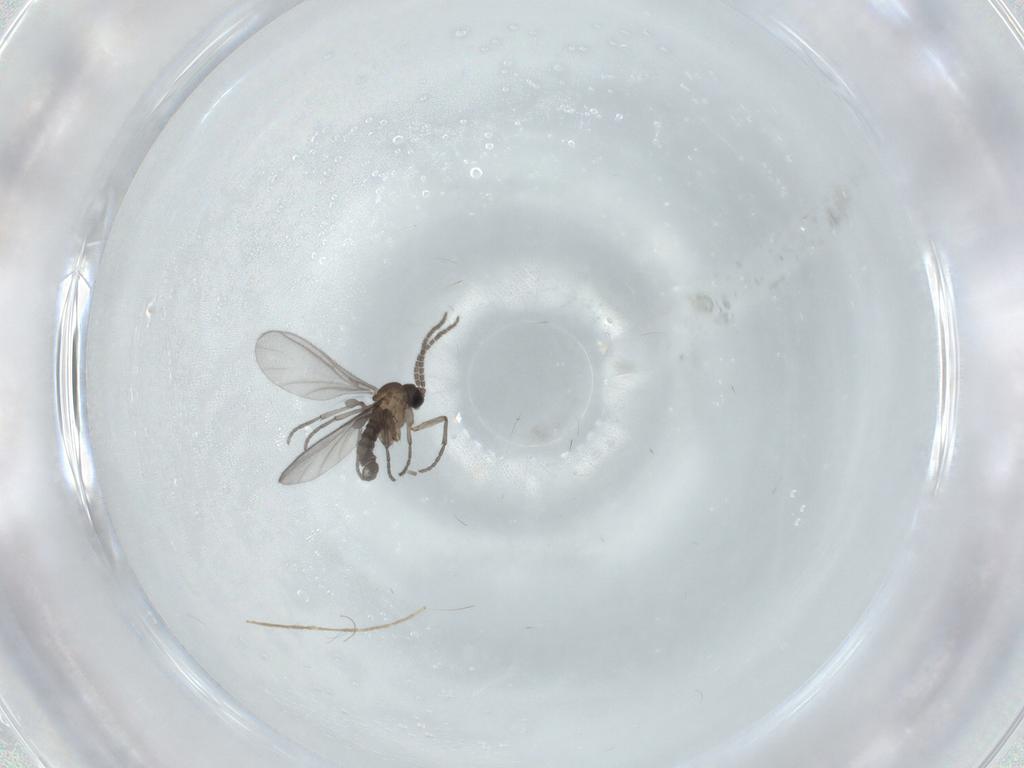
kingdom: Animalia
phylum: Arthropoda
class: Insecta
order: Diptera
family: Sciaridae
